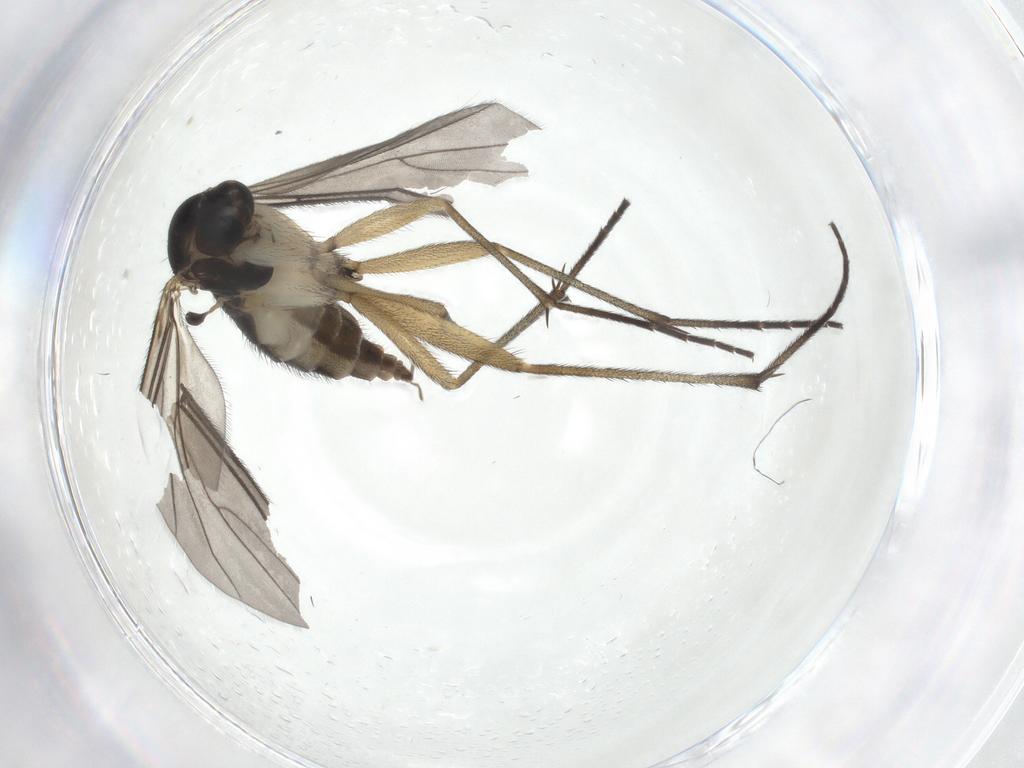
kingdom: Animalia
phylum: Arthropoda
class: Insecta
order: Diptera
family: Sciaridae
